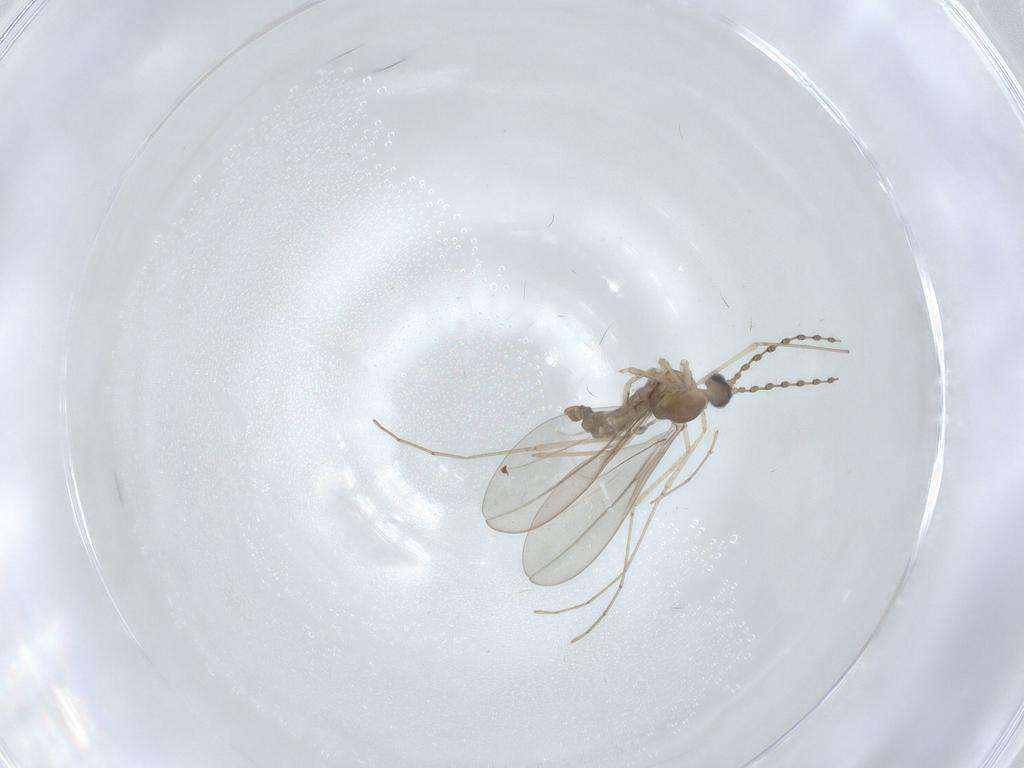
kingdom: Animalia
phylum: Arthropoda
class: Insecta
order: Diptera
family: Cecidomyiidae
